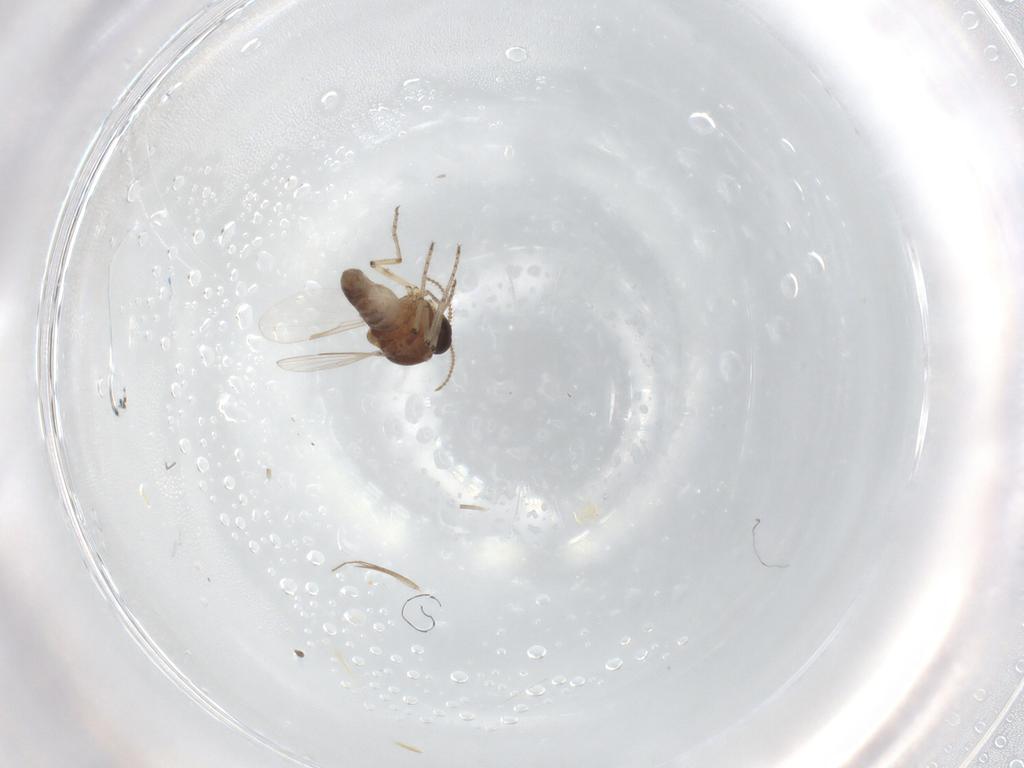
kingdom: Animalia
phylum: Arthropoda
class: Insecta
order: Diptera
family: Ceratopogonidae
